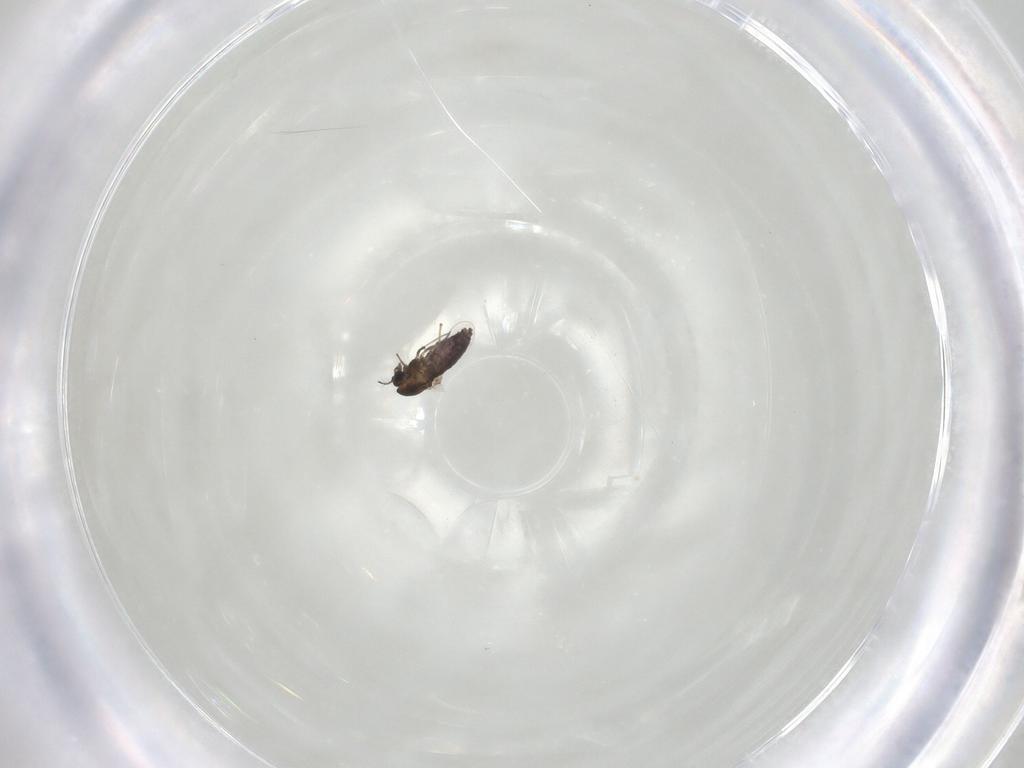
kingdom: Animalia
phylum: Arthropoda
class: Insecta
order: Diptera
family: Chironomidae
